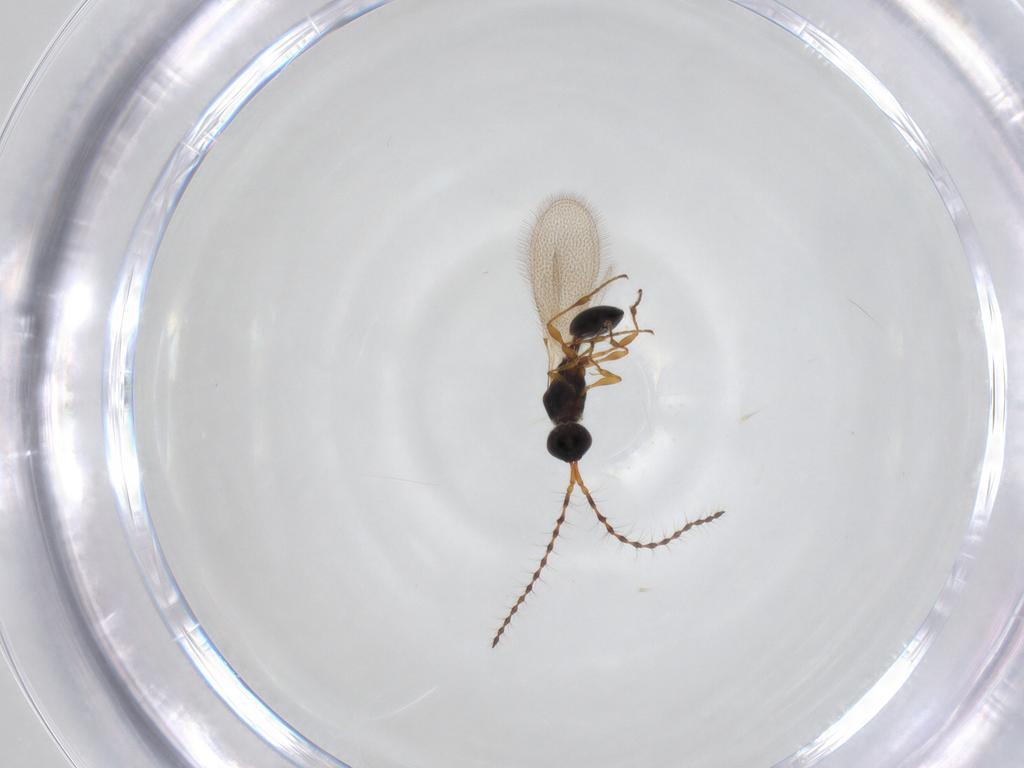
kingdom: Animalia
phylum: Arthropoda
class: Insecta
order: Hymenoptera
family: Diapriidae
